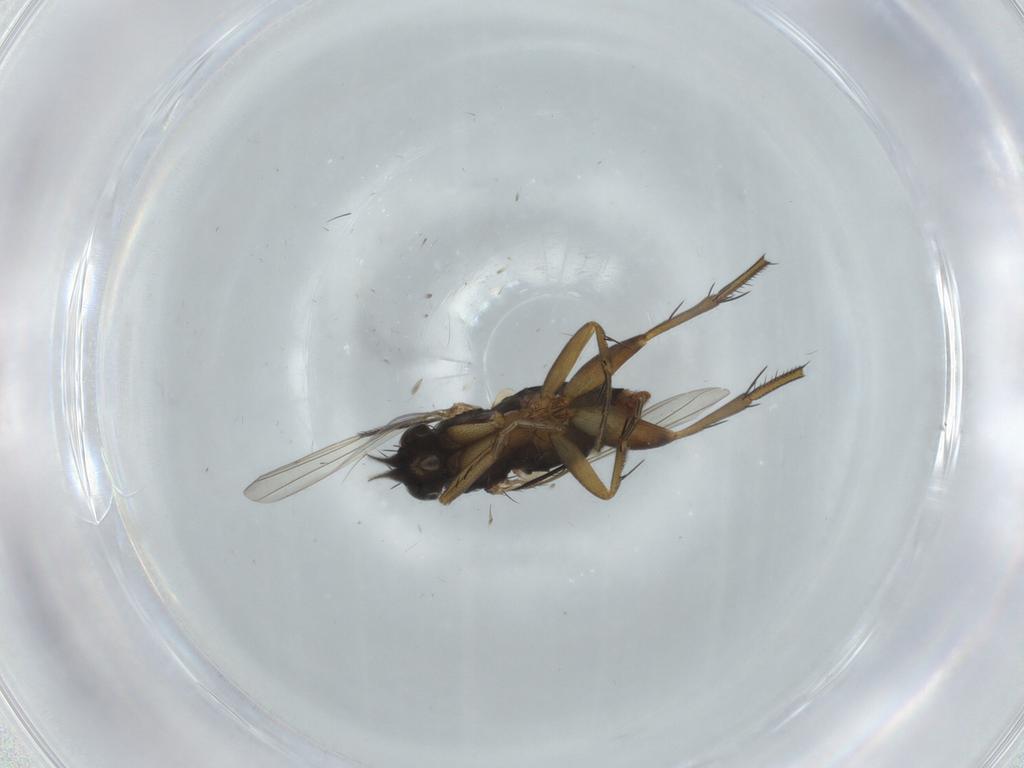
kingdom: Animalia
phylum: Arthropoda
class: Insecta
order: Diptera
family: Phoridae
